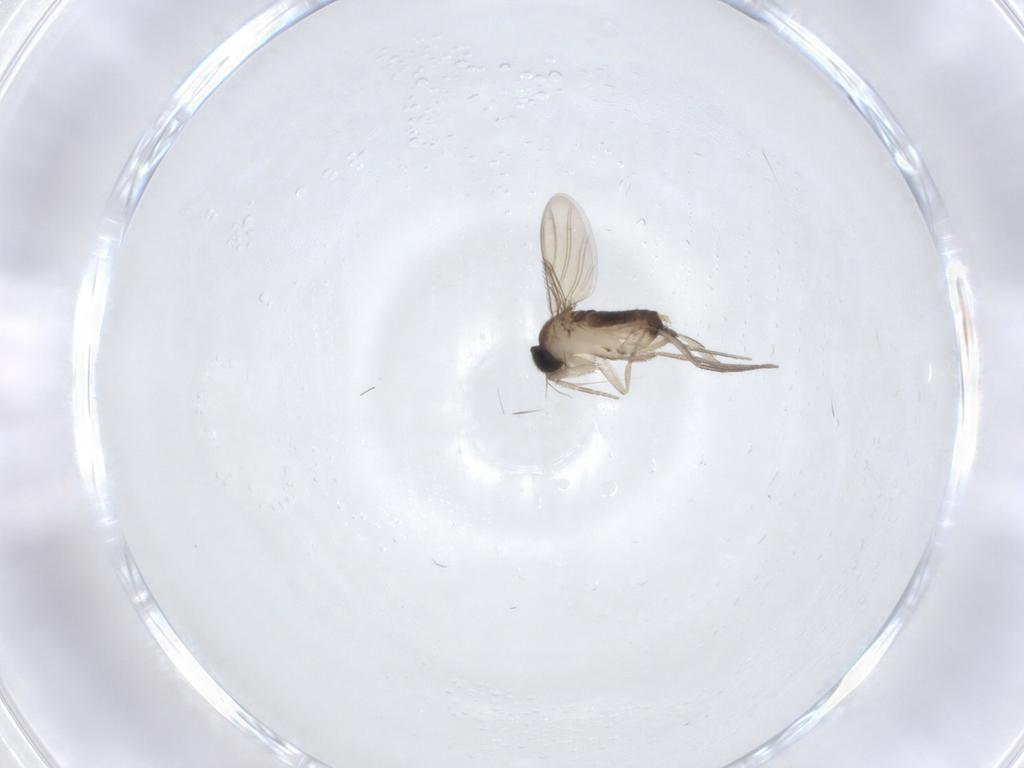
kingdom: Animalia
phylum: Arthropoda
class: Insecta
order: Diptera
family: Phoridae
